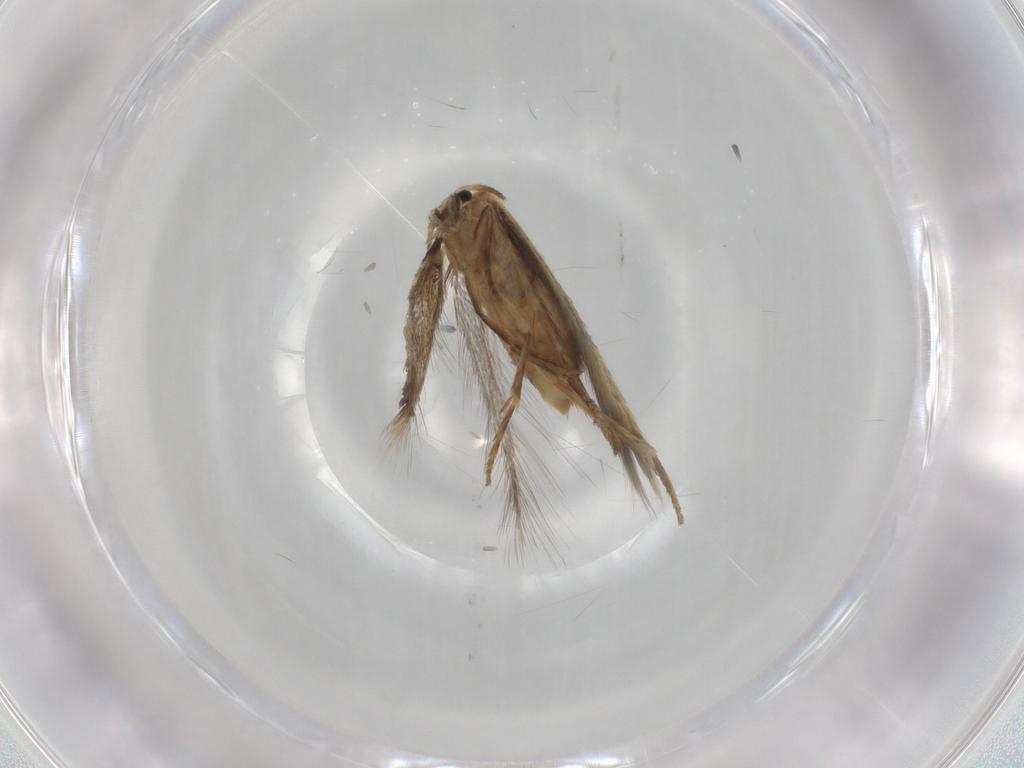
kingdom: Animalia
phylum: Arthropoda
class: Insecta
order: Lepidoptera
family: Nepticulidae
